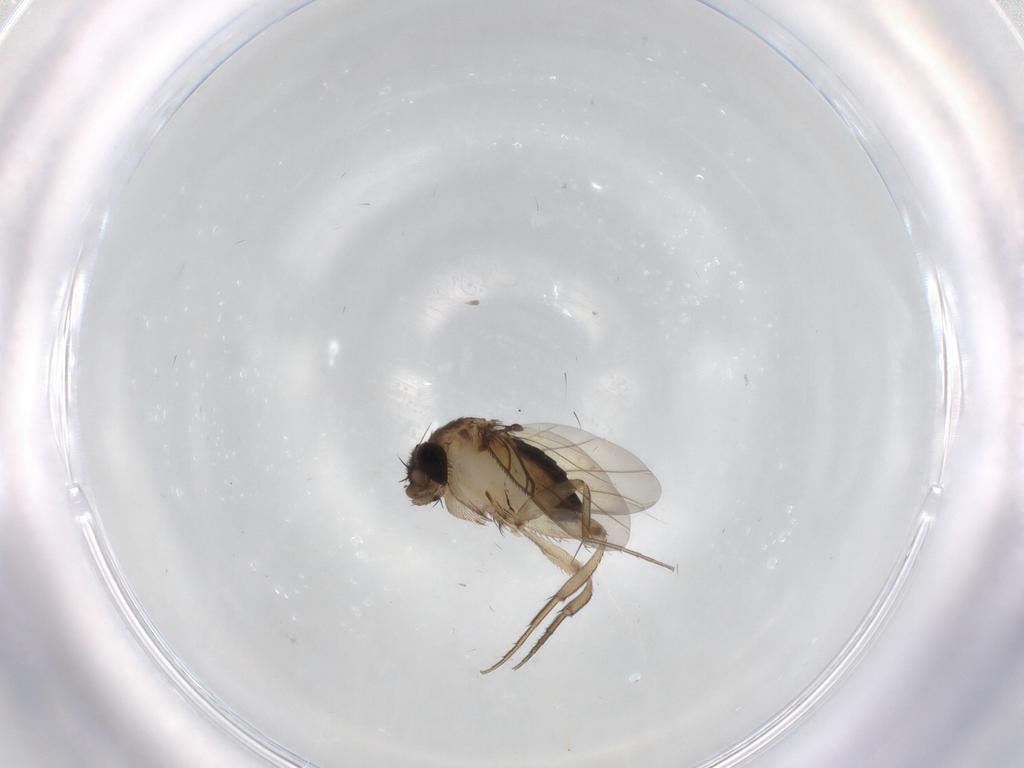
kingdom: Animalia
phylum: Arthropoda
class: Insecta
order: Diptera
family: Phoridae
